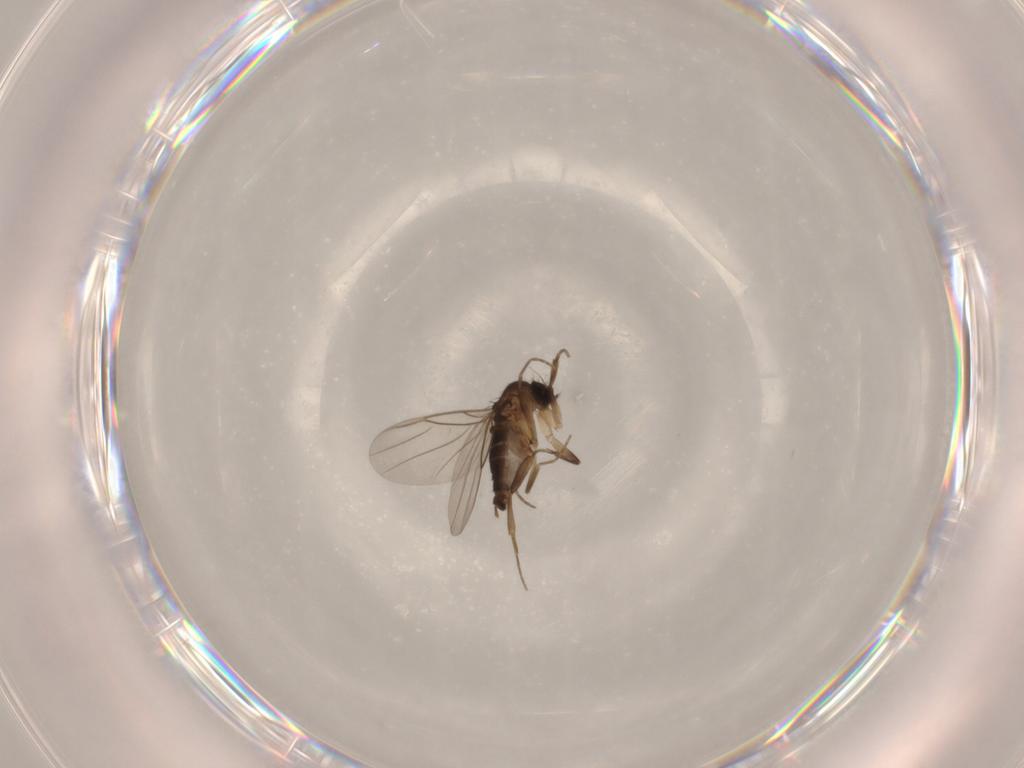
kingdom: Animalia
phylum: Arthropoda
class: Insecta
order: Diptera
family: Phoridae
